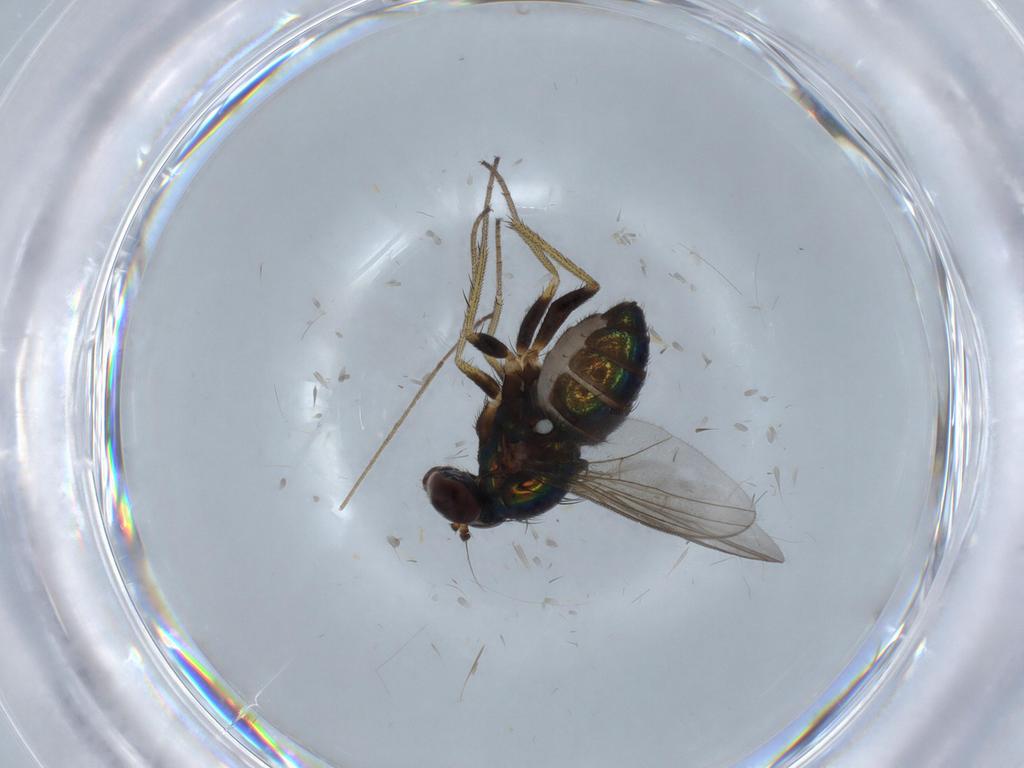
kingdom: Animalia
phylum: Arthropoda
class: Insecta
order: Diptera
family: Limoniidae
